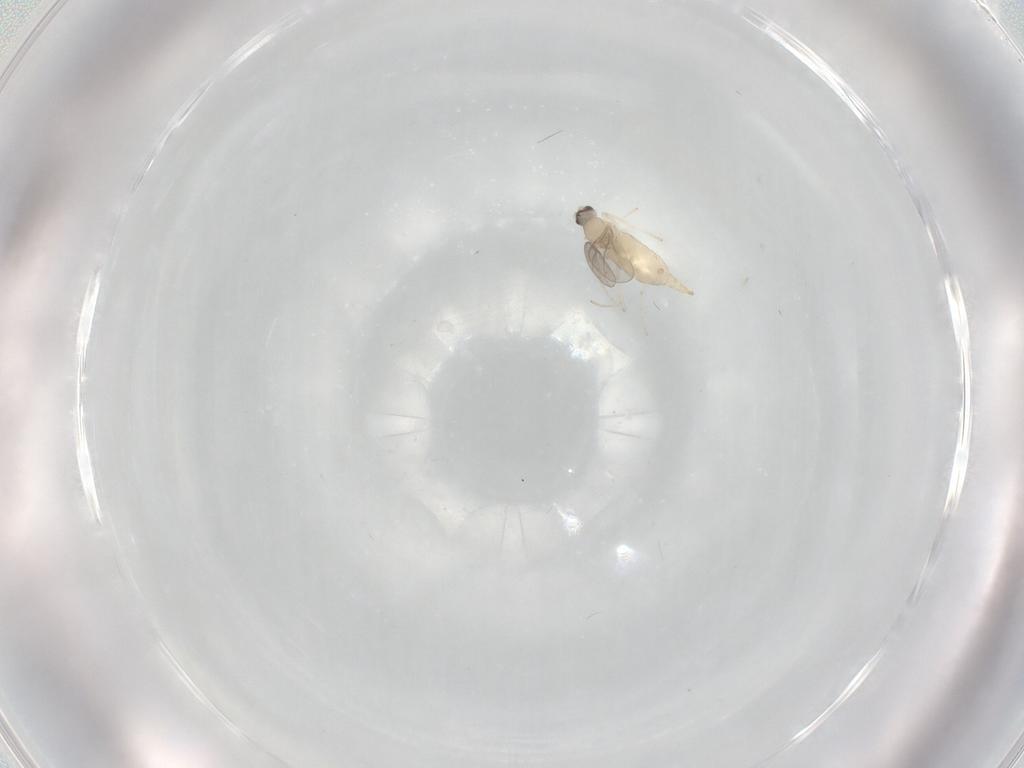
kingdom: Animalia
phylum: Arthropoda
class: Insecta
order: Diptera
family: Cecidomyiidae
